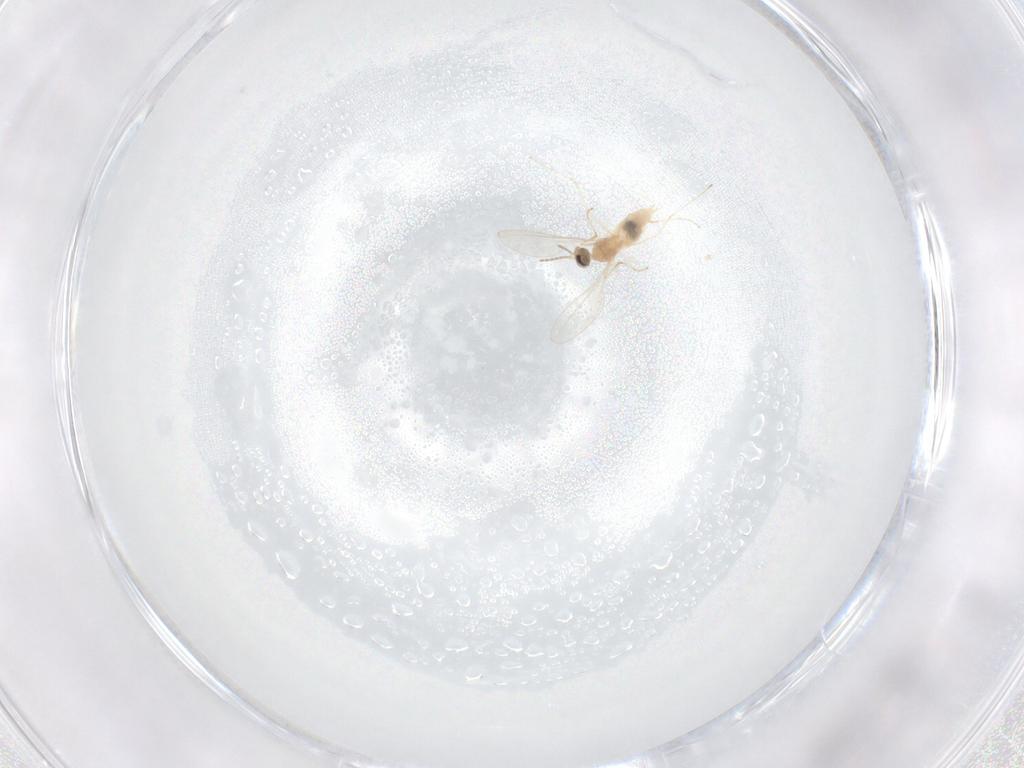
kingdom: Animalia
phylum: Arthropoda
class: Insecta
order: Diptera
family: Cecidomyiidae
